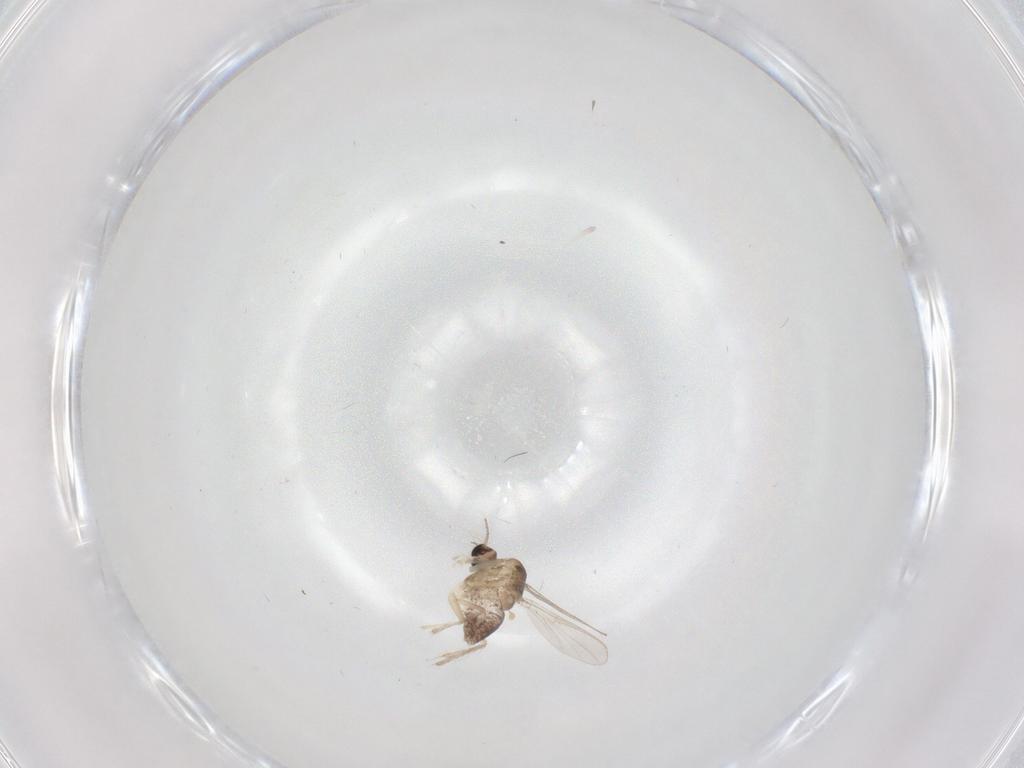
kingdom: Animalia
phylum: Arthropoda
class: Insecta
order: Diptera
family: Chironomidae
